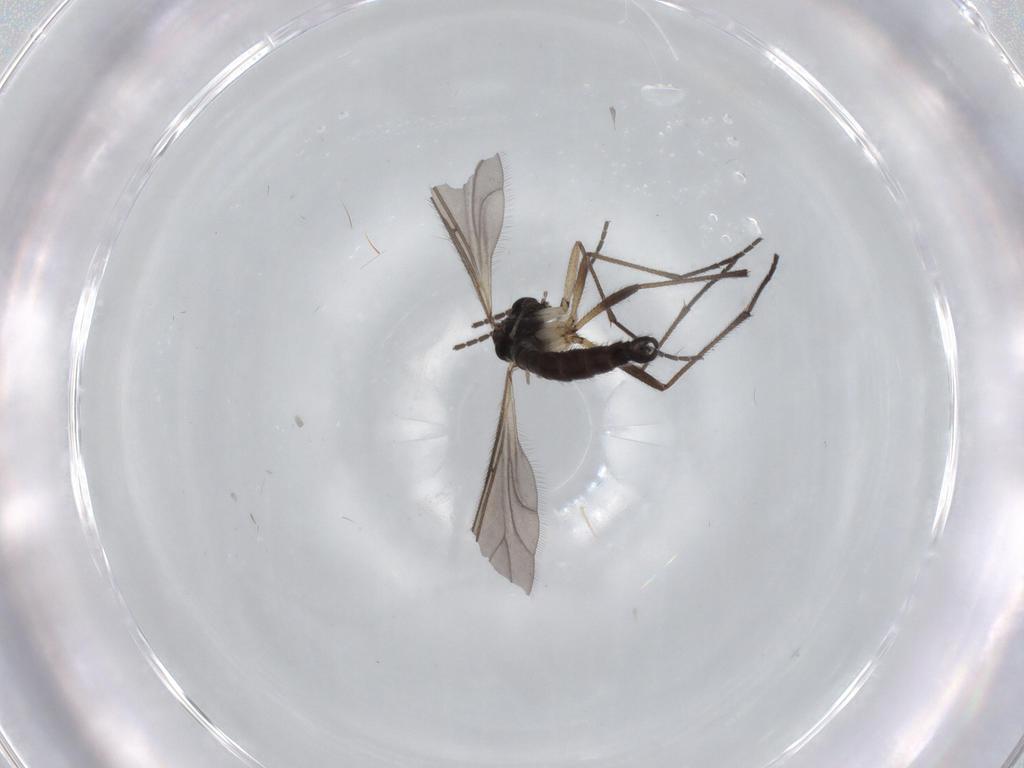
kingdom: Animalia
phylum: Arthropoda
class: Insecta
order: Diptera
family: Sciaridae
